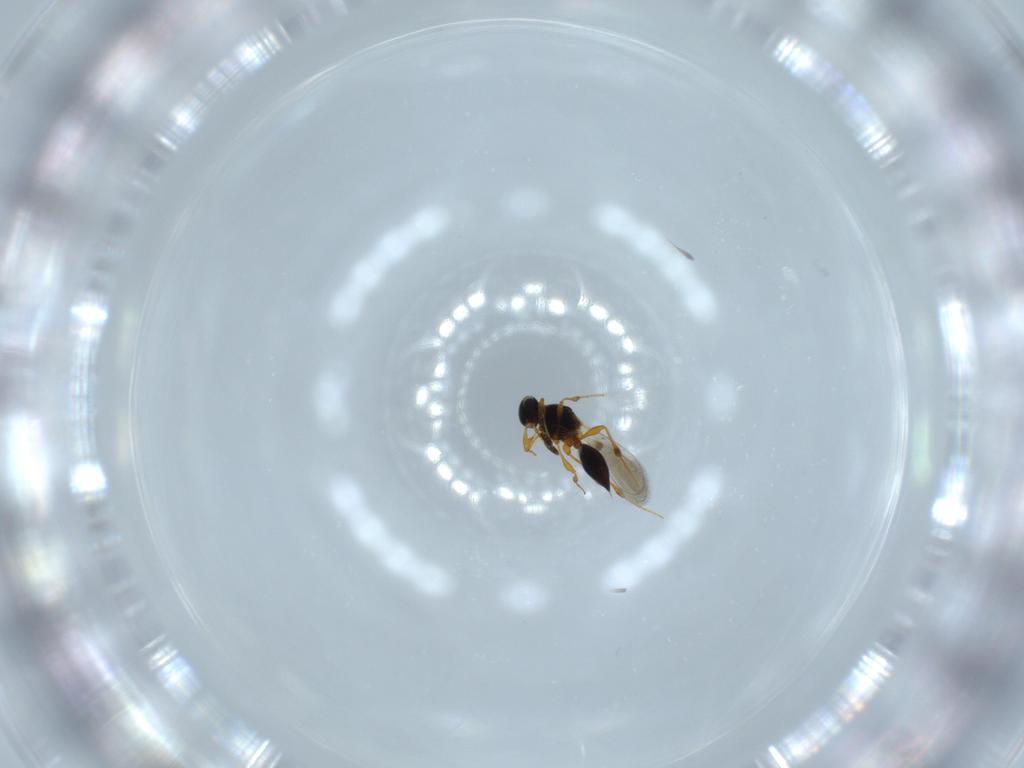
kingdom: Animalia
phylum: Arthropoda
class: Insecta
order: Hymenoptera
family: Platygastridae
